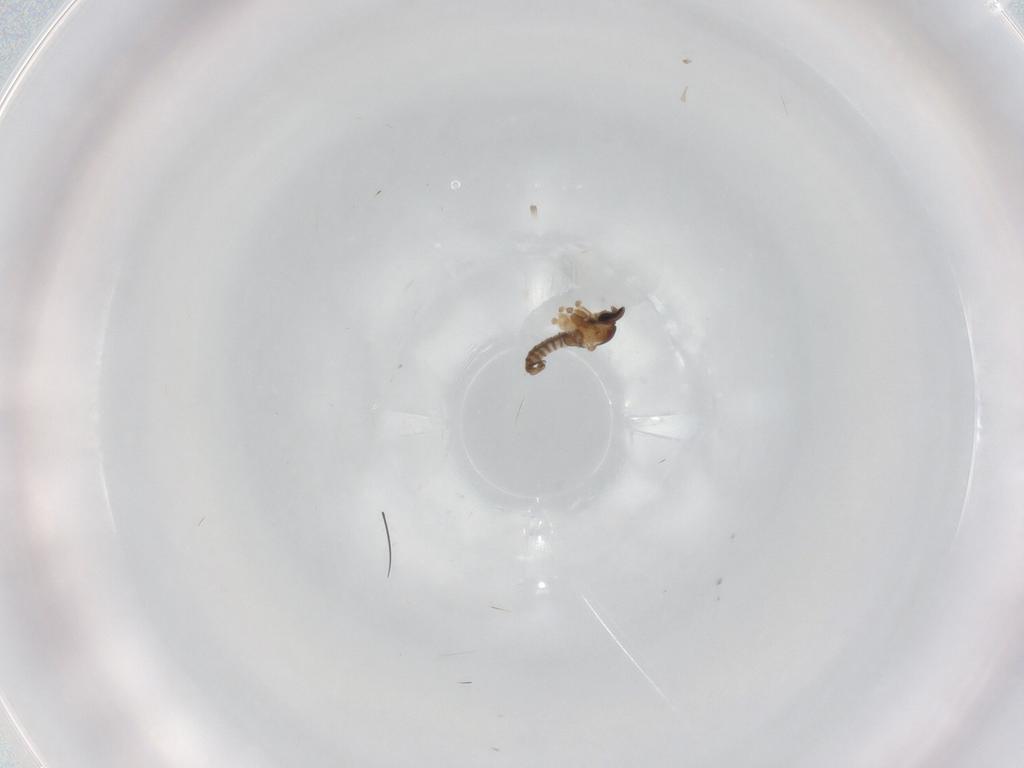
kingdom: Animalia
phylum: Arthropoda
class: Insecta
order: Diptera
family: Cecidomyiidae
